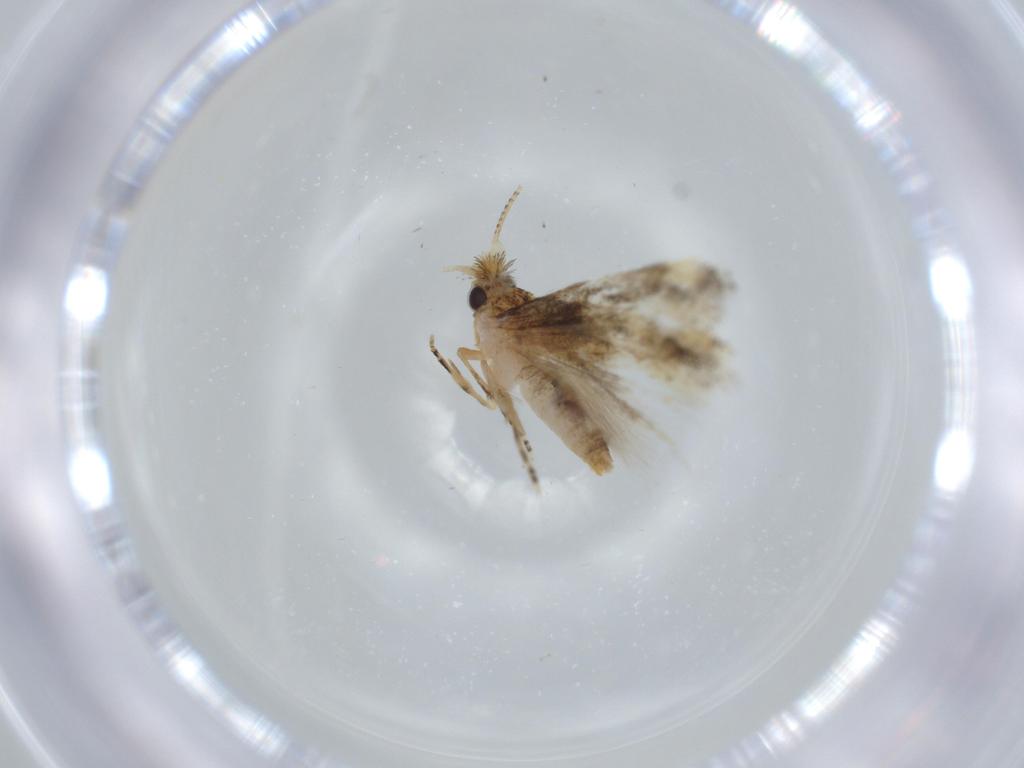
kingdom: Animalia
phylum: Arthropoda
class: Insecta
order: Lepidoptera
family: Bucculatricidae
